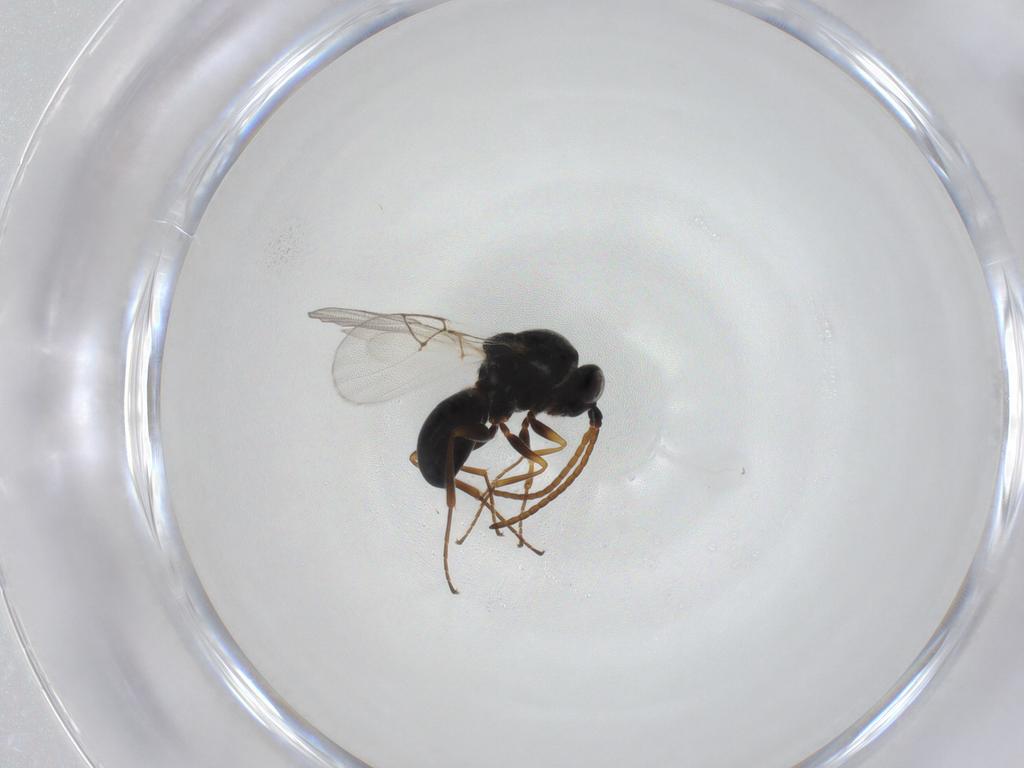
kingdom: Animalia
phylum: Arthropoda
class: Insecta
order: Hymenoptera
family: Figitidae
